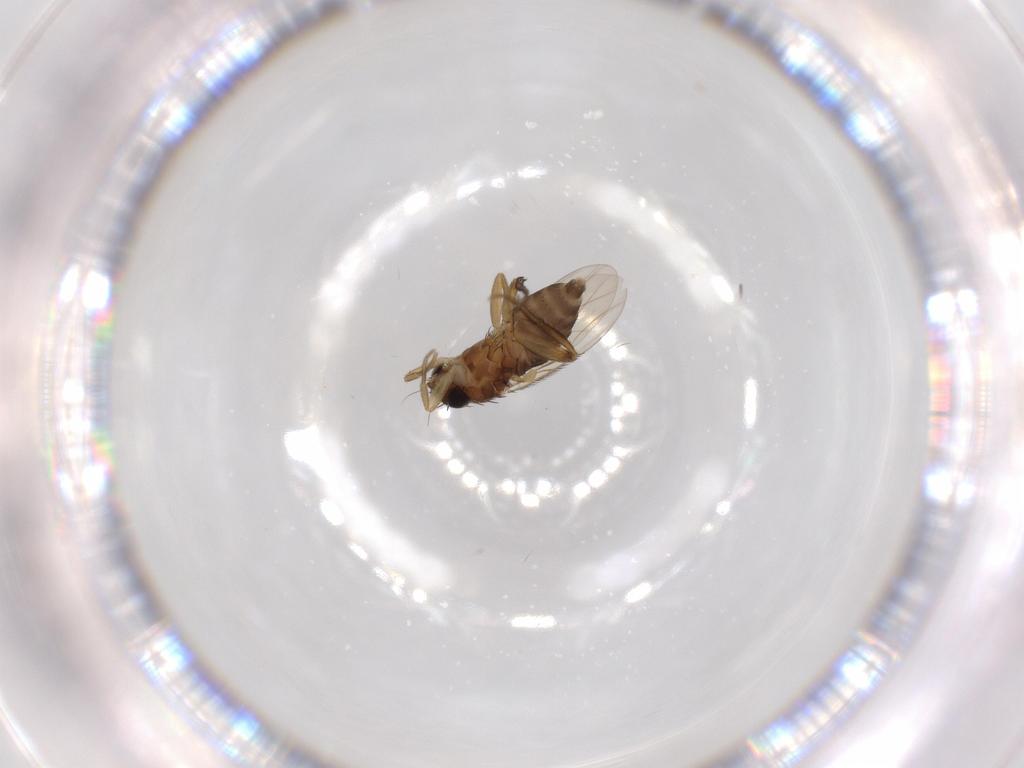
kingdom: Animalia
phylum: Arthropoda
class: Insecta
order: Diptera
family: Phoridae
